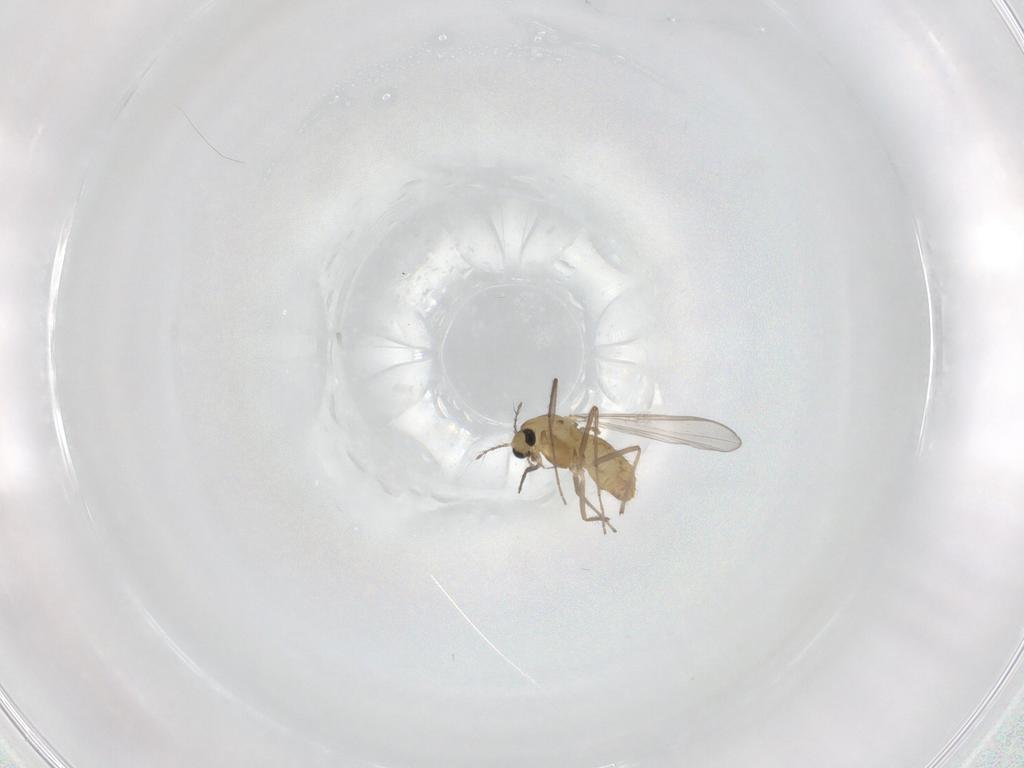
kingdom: Animalia
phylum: Arthropoda
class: Insecta
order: Diptera
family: Chironomidae
